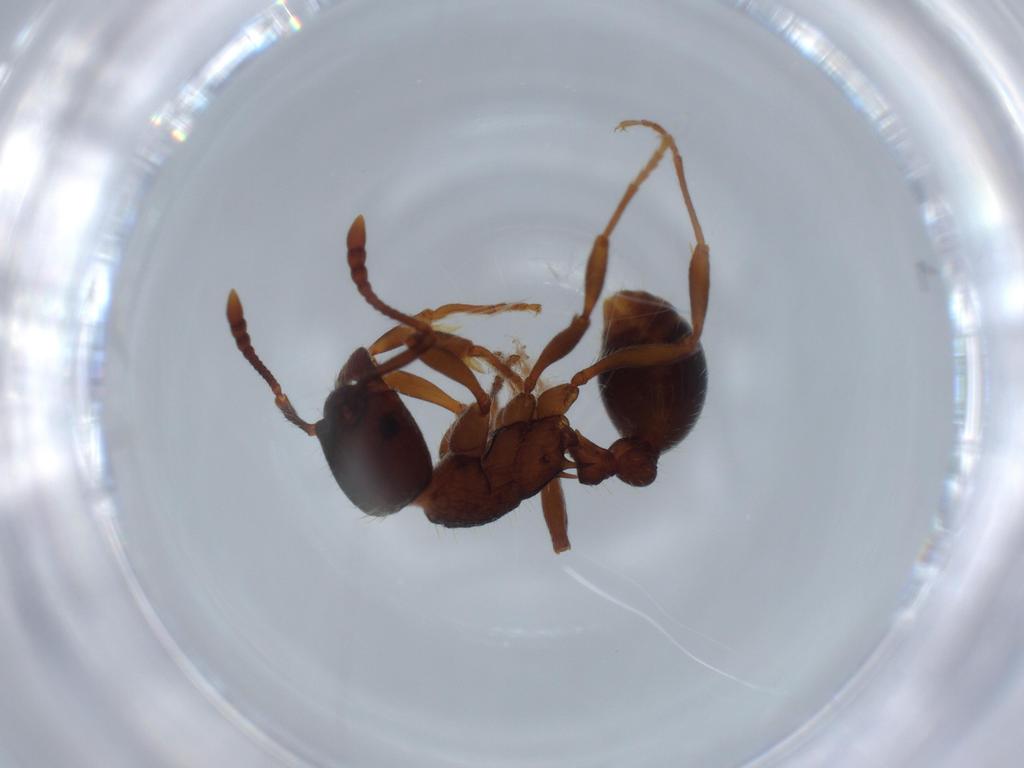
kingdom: Animalia
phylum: Arthropoda
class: Insecta
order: Hymenoptera
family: Formicidae
